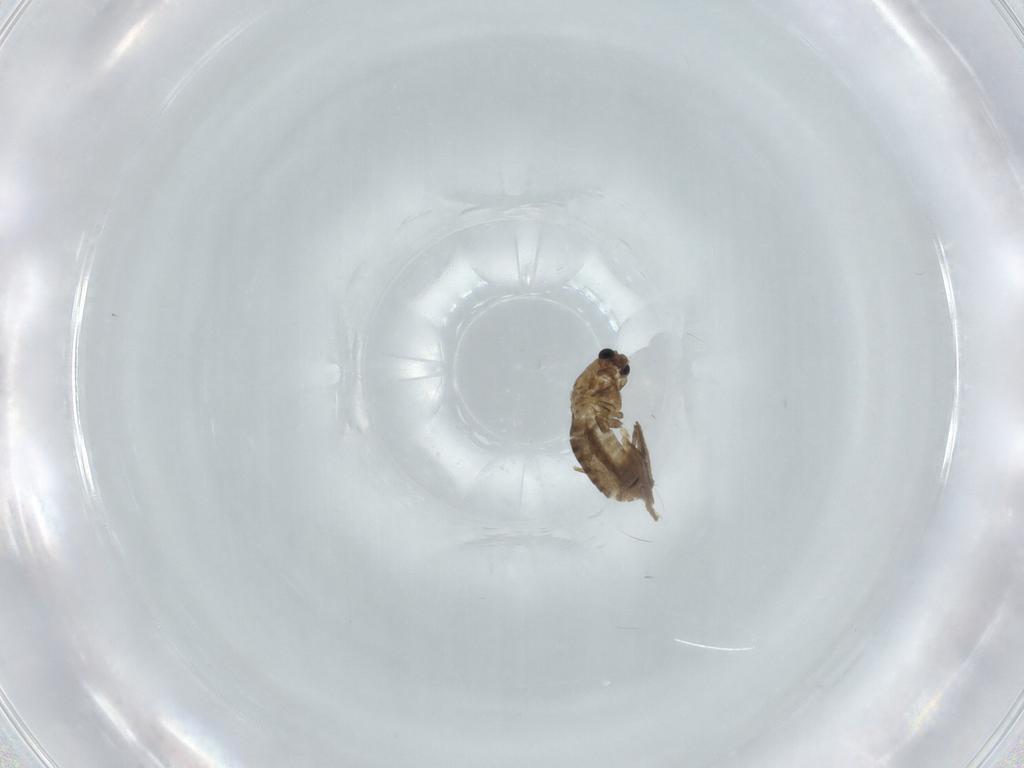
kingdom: Animalia
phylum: Arthropoda
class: Insecta
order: Diptera
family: Chironomidae
